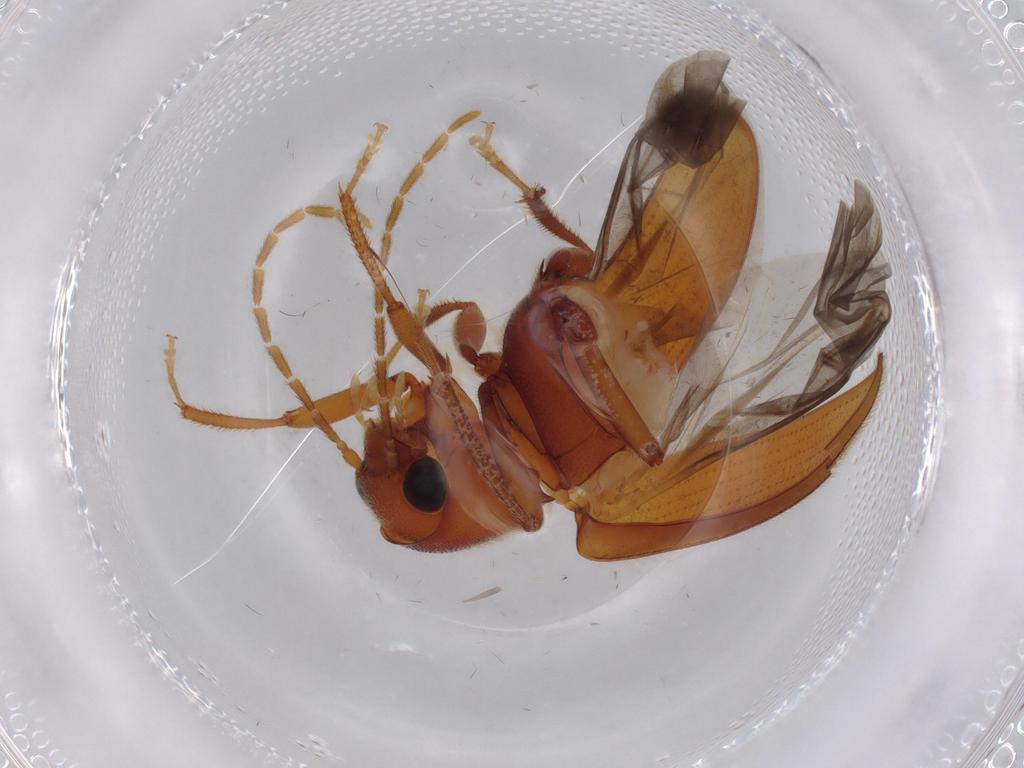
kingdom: Animalia
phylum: Arthropoda
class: Insecta
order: Coleoptera
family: Ptilodactylidae
